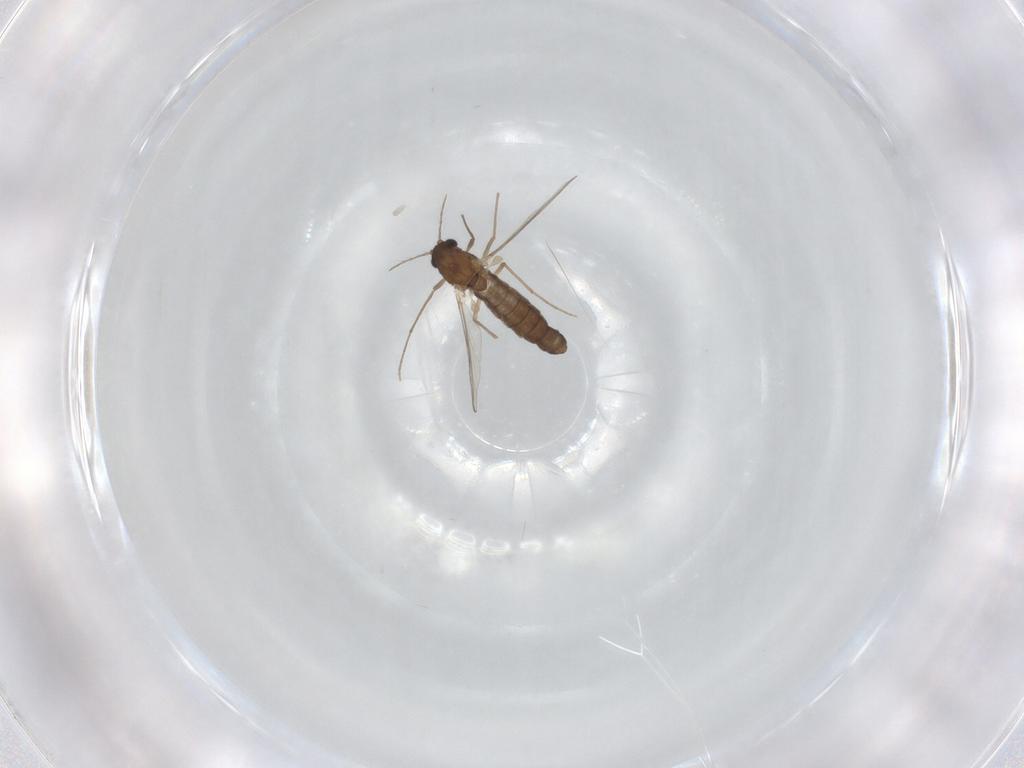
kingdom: Animalia
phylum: Arthropoda
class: Insecta
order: Diptera
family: Chironomidae
